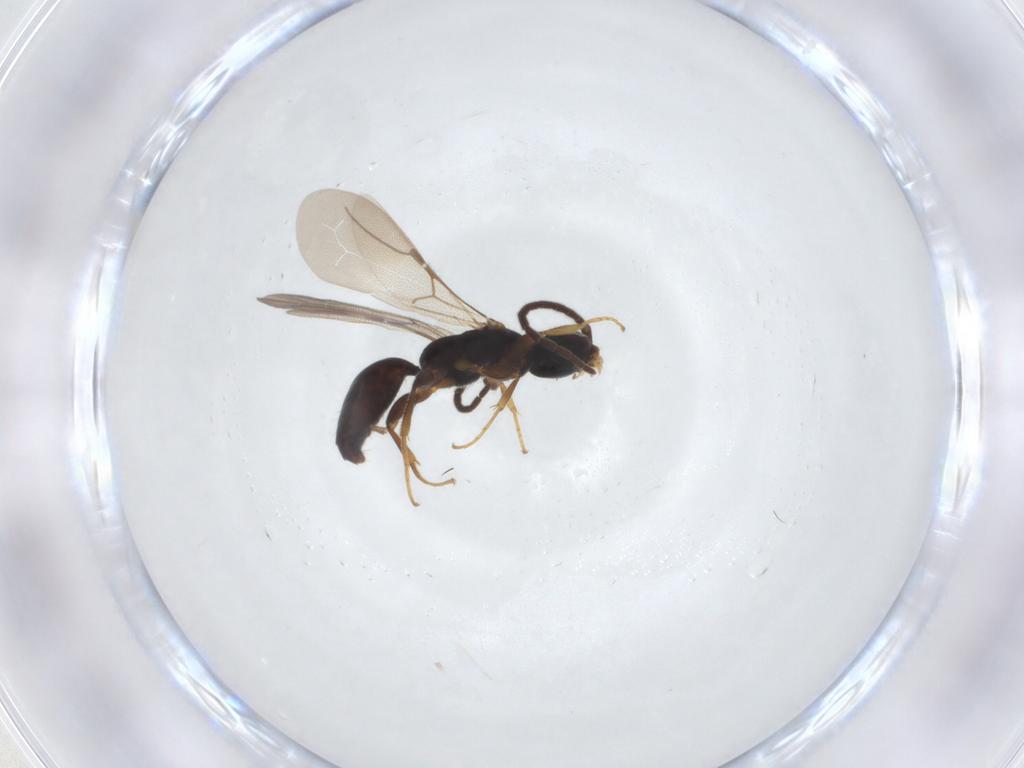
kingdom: Animalia
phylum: Arthropoda
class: Insecta
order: Hymenoptera
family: Bethylidae
